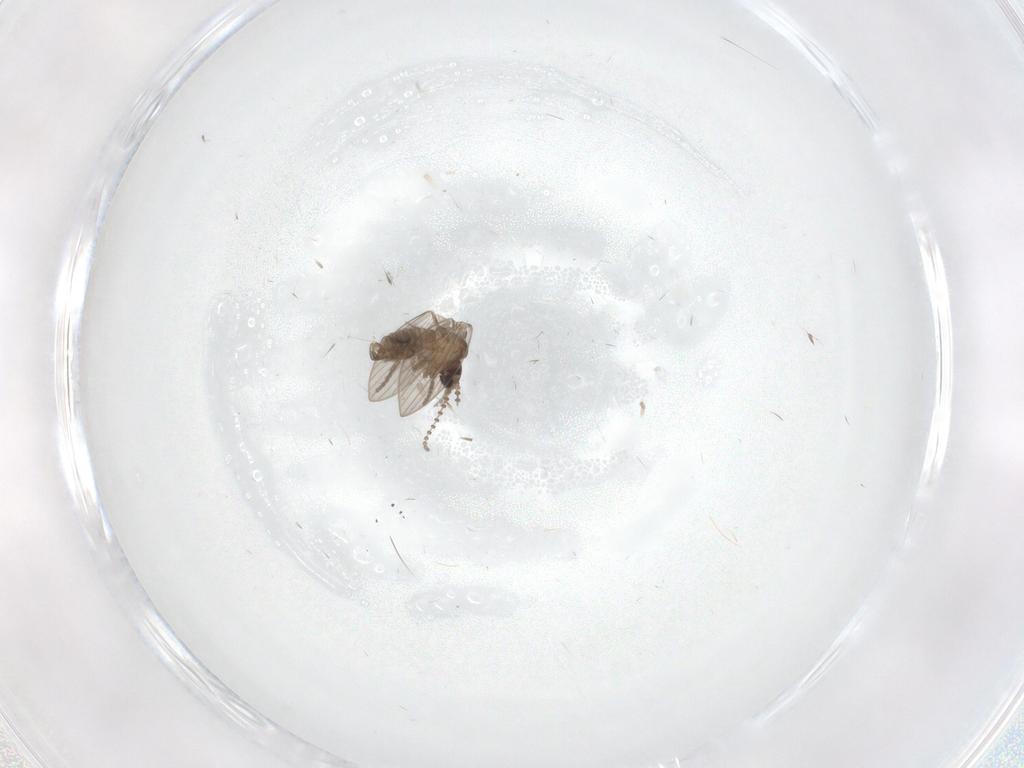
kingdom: Animalia
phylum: Arthropoda
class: Insecta
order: Diptera
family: Psychodidae
